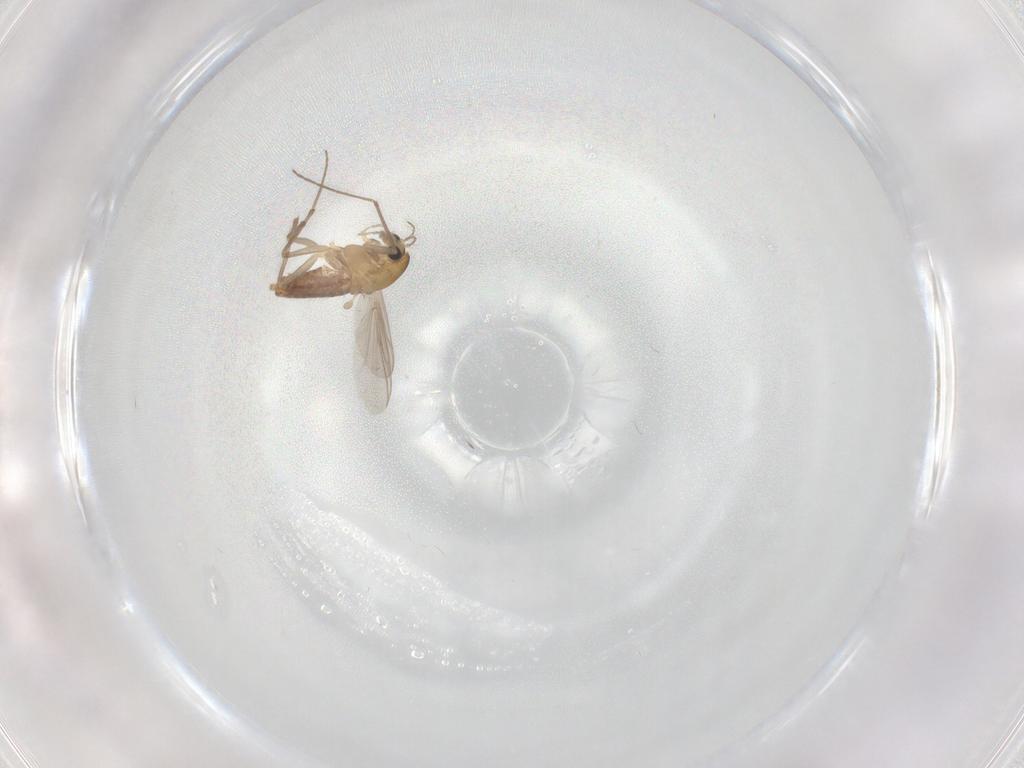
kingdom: Animalia
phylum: Arthropoda
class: Insecta
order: Diptera
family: Chironomidae
